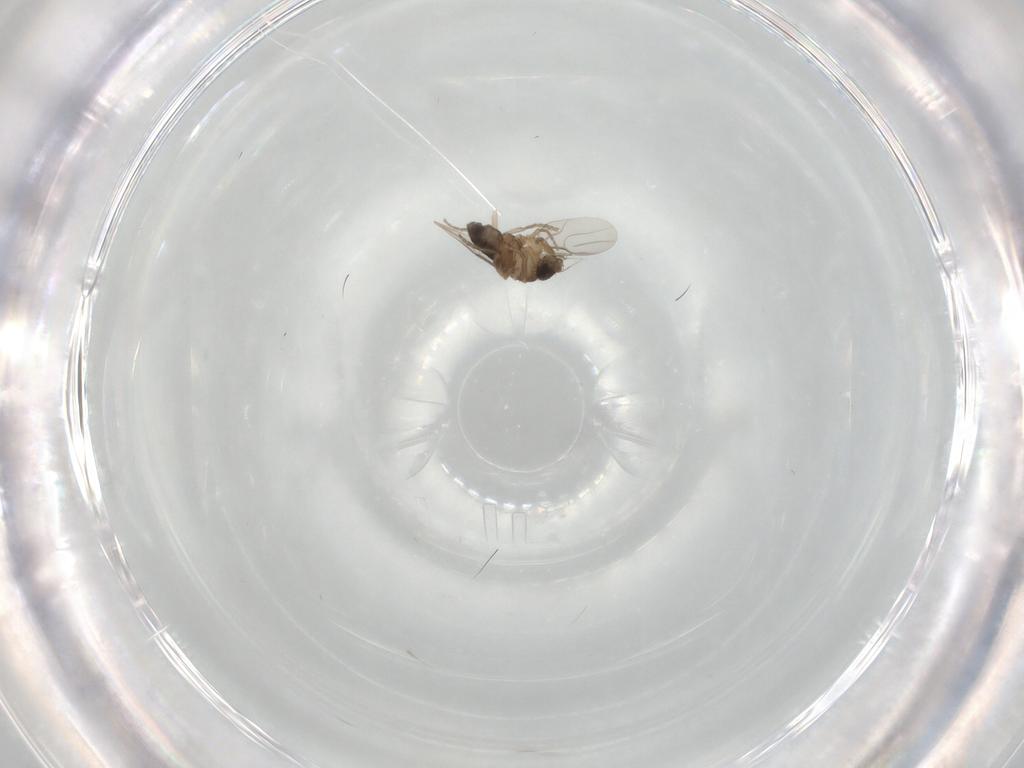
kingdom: Animalia
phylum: Arthropoda
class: Insecta
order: Diptera
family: Phoridae
